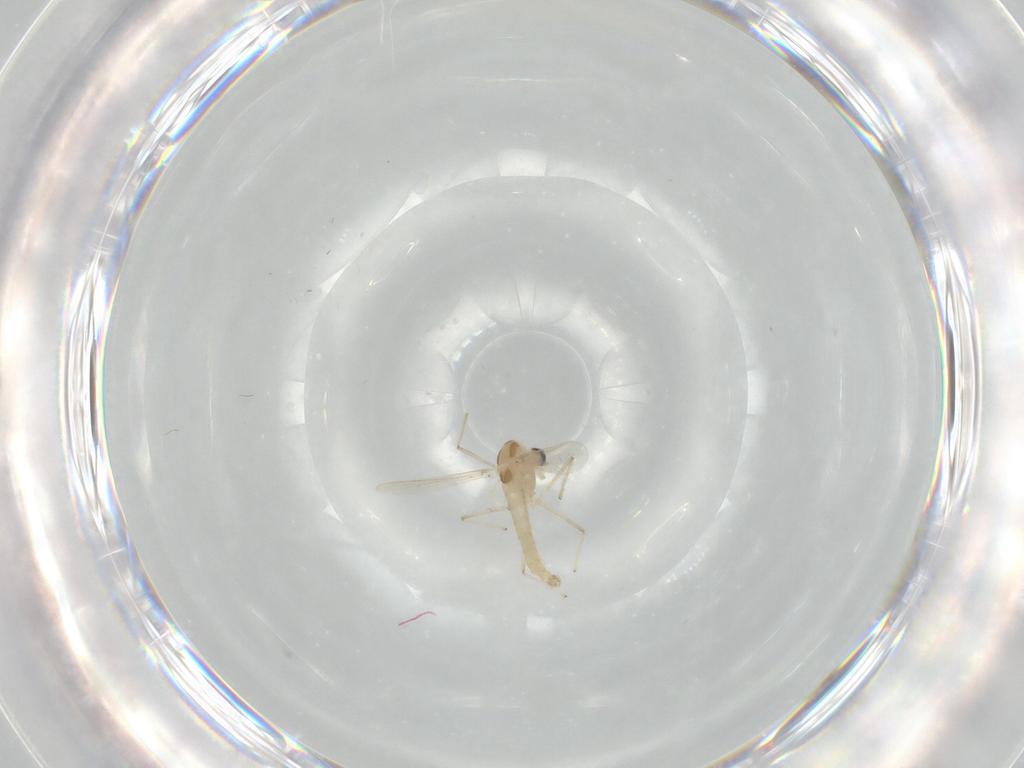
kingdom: Animalia
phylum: Arthropoda
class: Insecta
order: Diptera
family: Chironomidae
